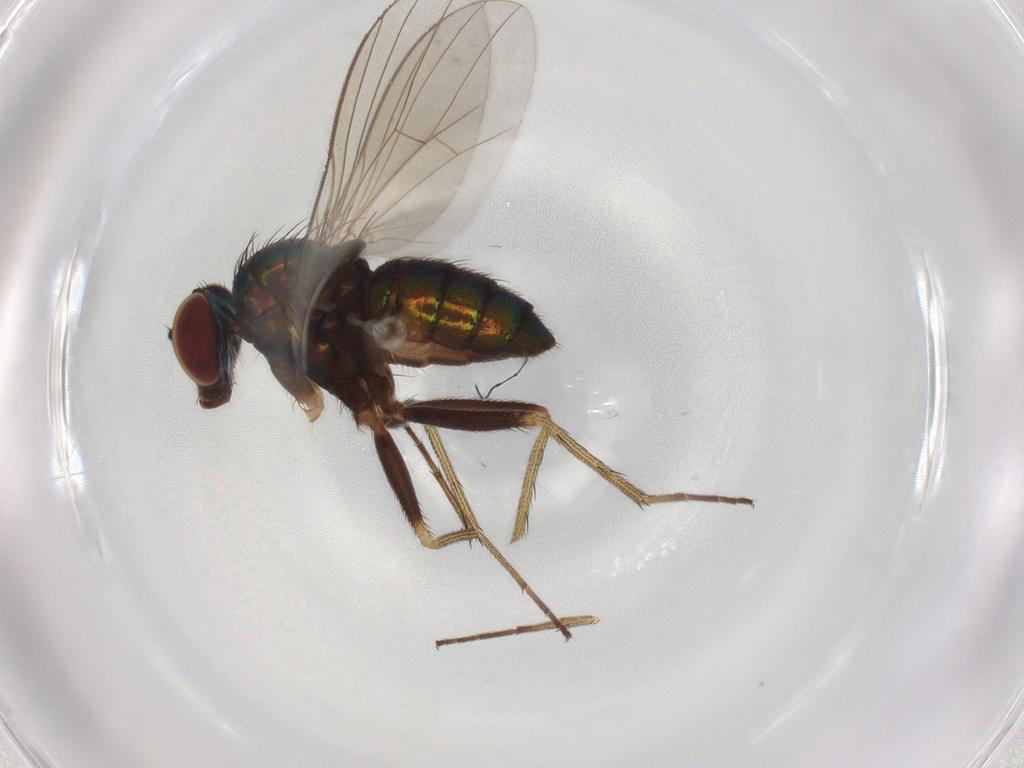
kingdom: Animalia
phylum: Arthropoda
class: Insecta
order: Diptera
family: Dolichopodidae
